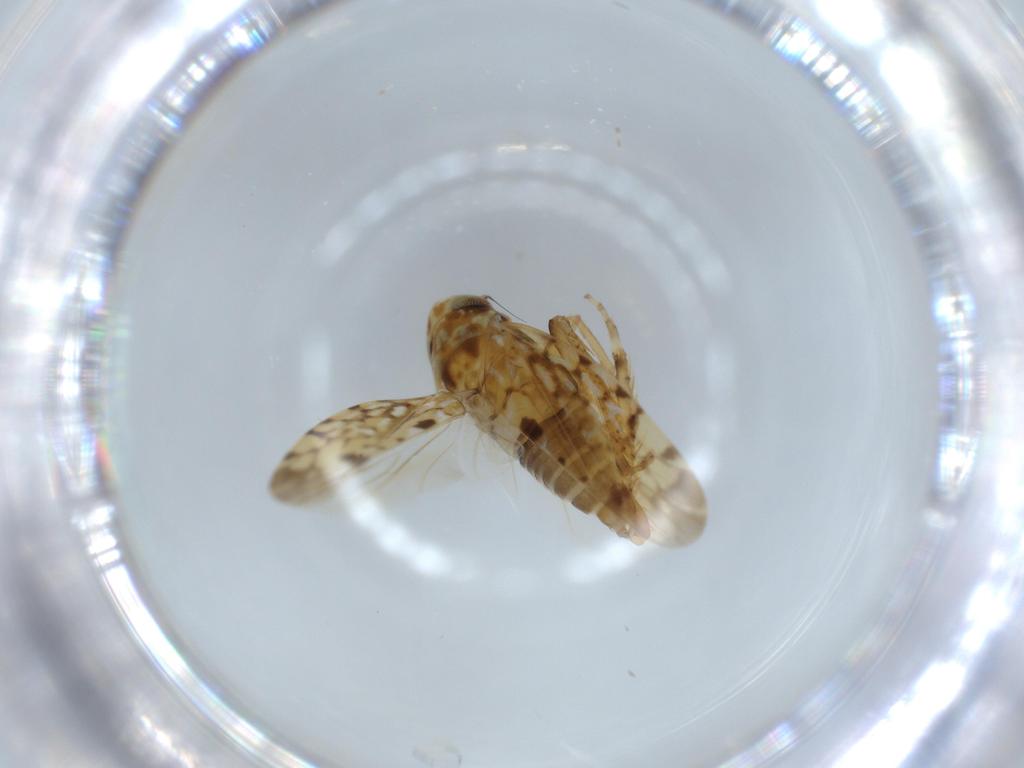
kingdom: Animalia
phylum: Arthropoda
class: Insecta
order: Hemiptera
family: Cicadellidae
